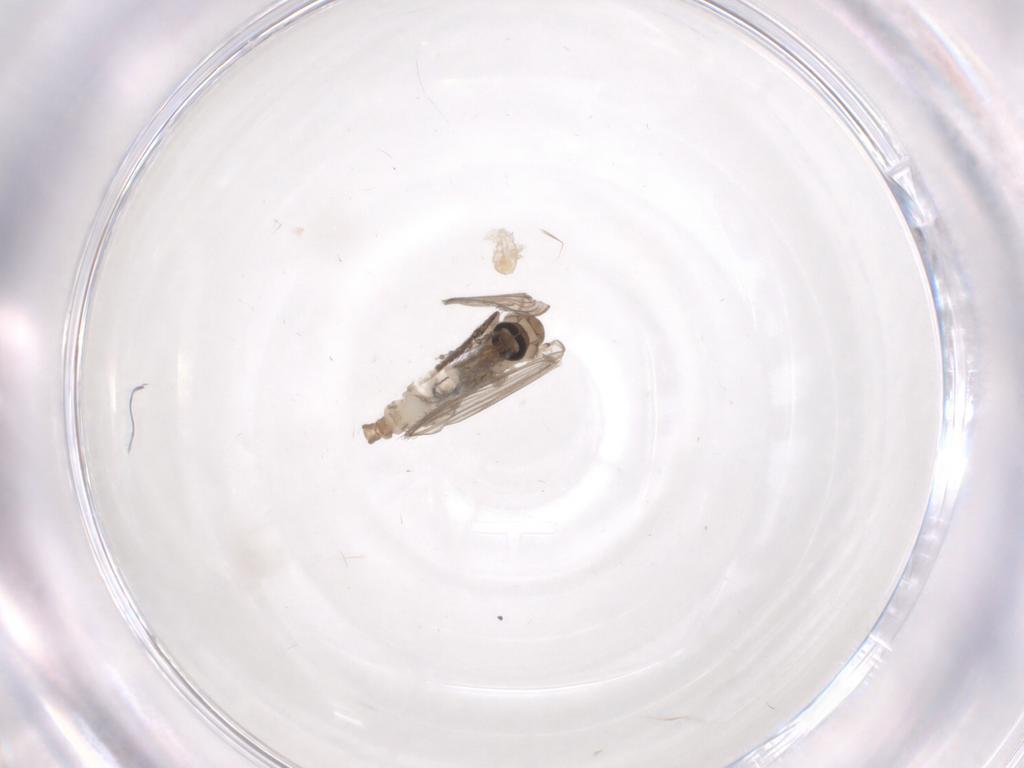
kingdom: Animalia
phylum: Arthropoda
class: Insecta
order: Diptera
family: Psychodidae
